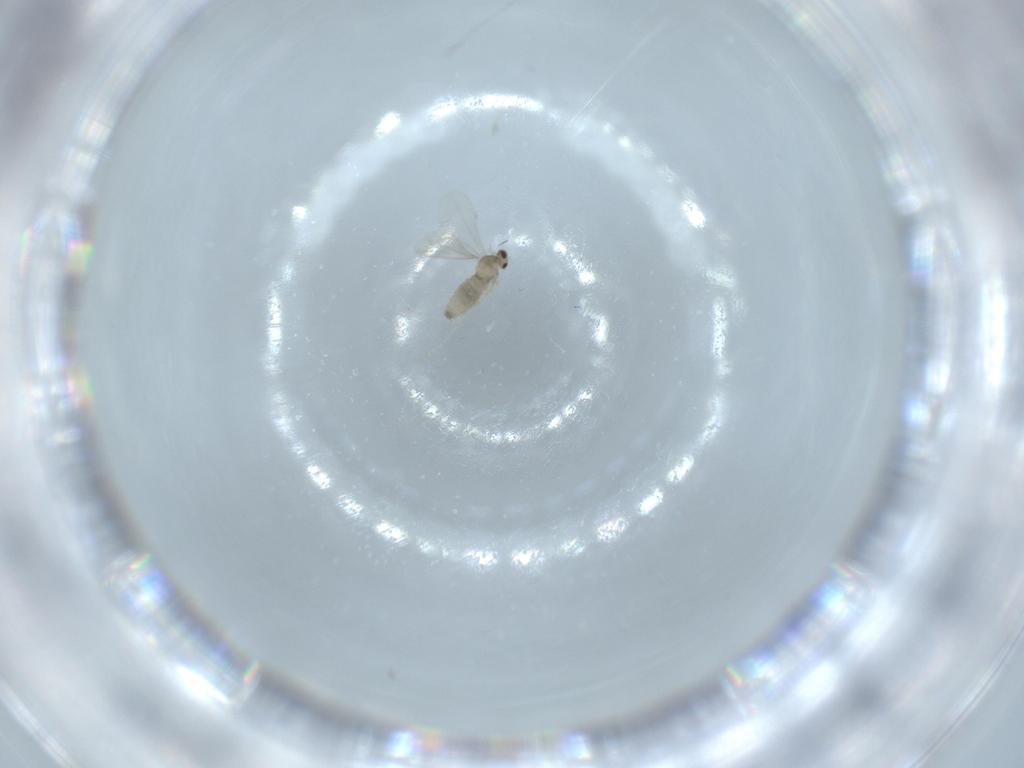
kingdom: Animalia
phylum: Arthropoda
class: Insecta
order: Diptera
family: Cecidomyiidae
